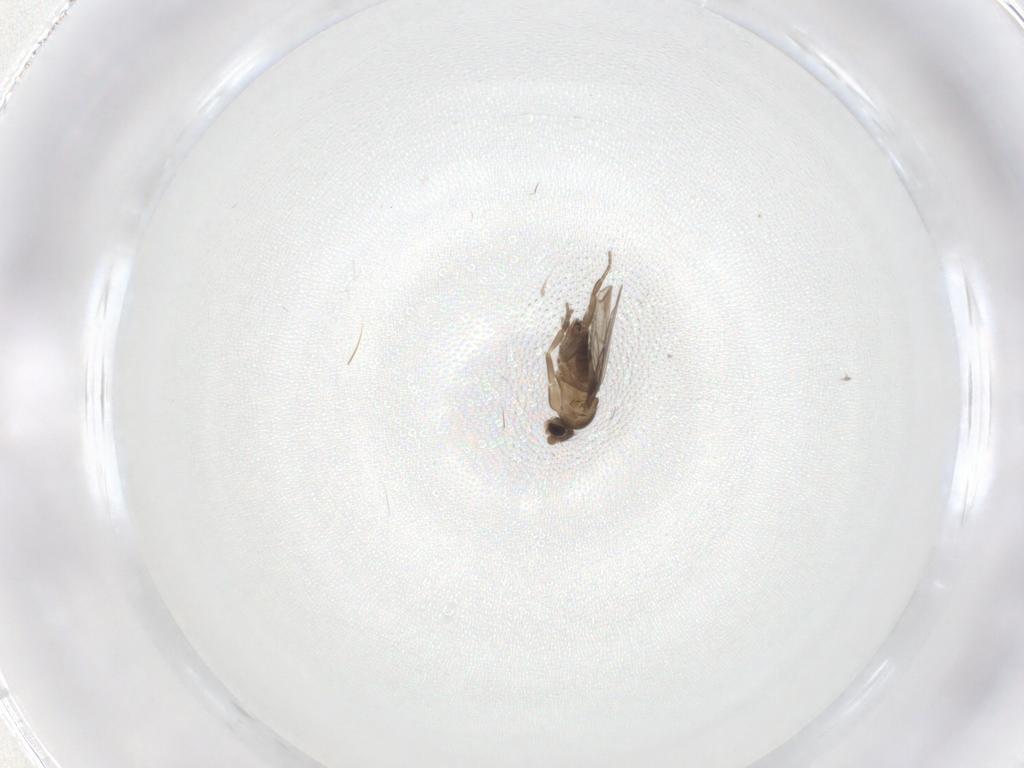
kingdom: Animalia
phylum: Arthropoda
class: Insecta
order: Diptera
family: Phoridae
